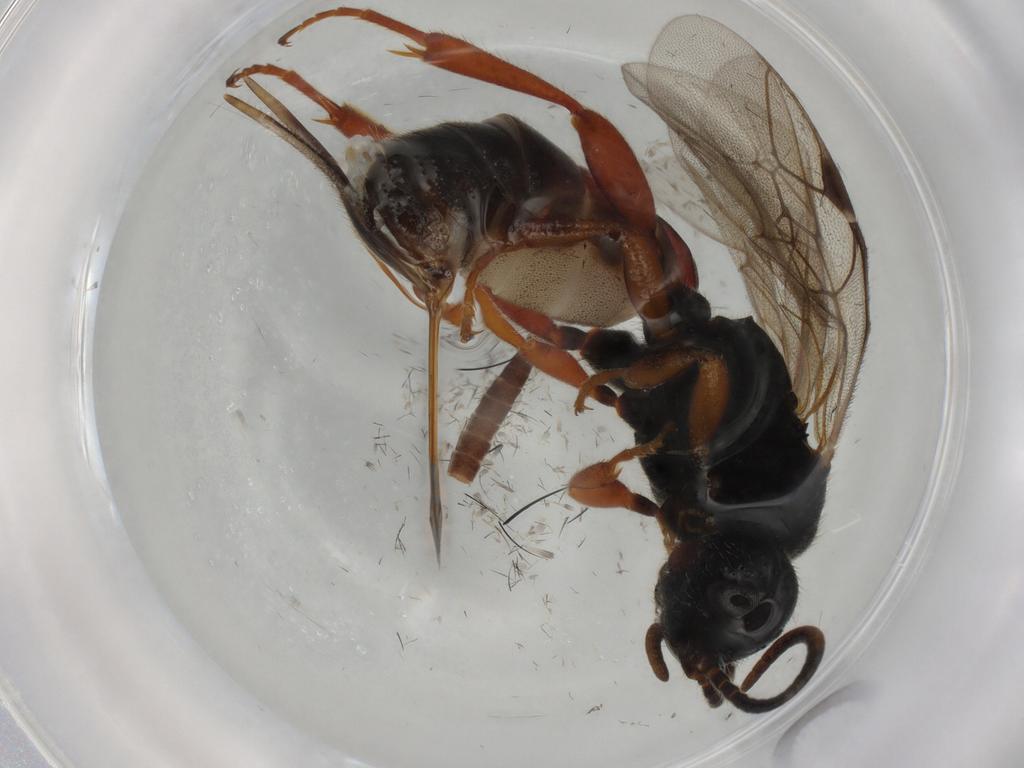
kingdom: Animalia
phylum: Arthropoda
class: Insecta
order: Hymenoptera
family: Ichneumonidae
